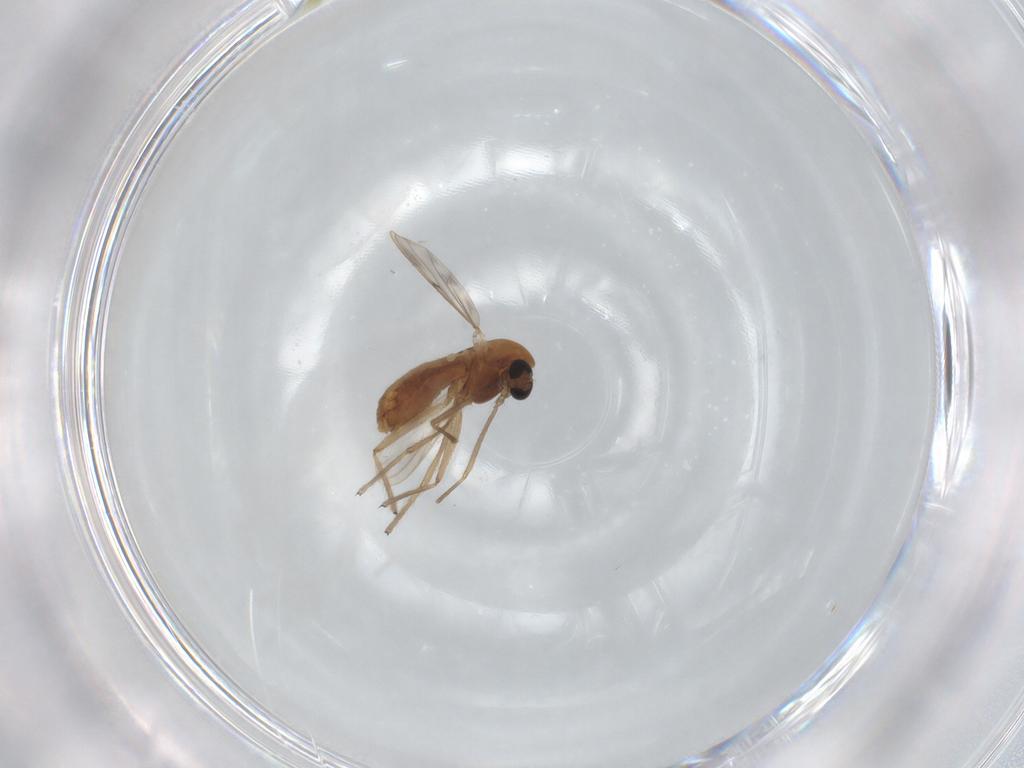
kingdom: Animalia
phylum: Arthropoda
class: Insecta
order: Diptera
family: Chironomidae
